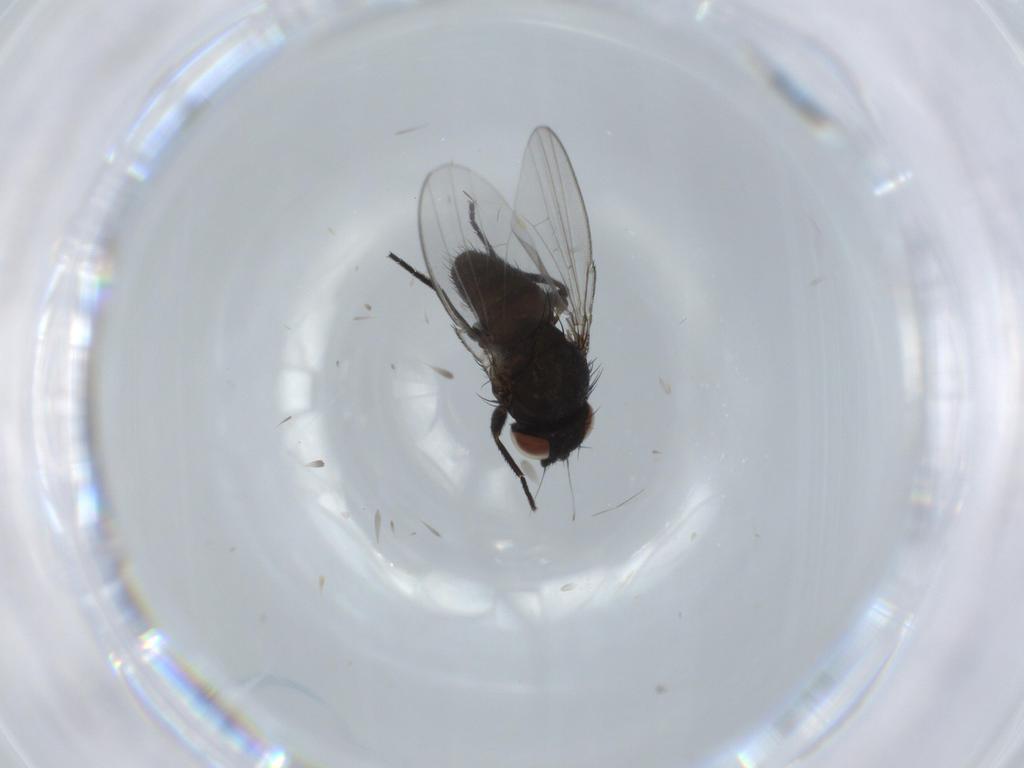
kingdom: Animalia
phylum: Arthropoda
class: Insecta
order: Diptera
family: Milichiidae
